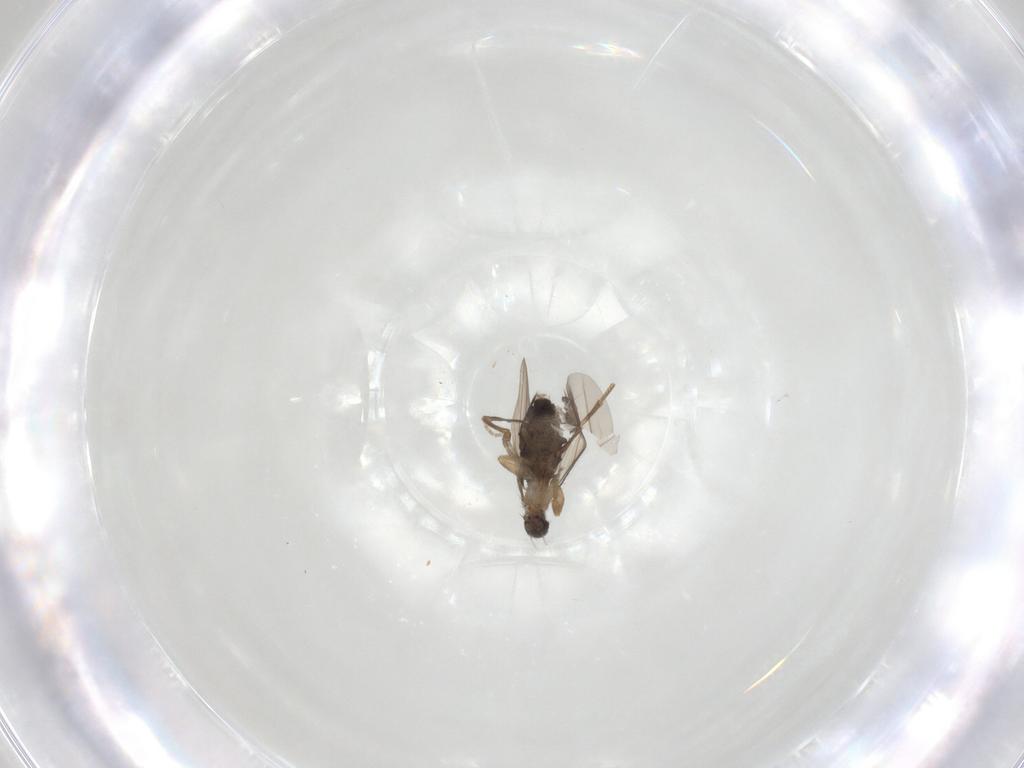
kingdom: Animalia
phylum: Arthropoda
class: Insecta
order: Diptera
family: Phoridae
